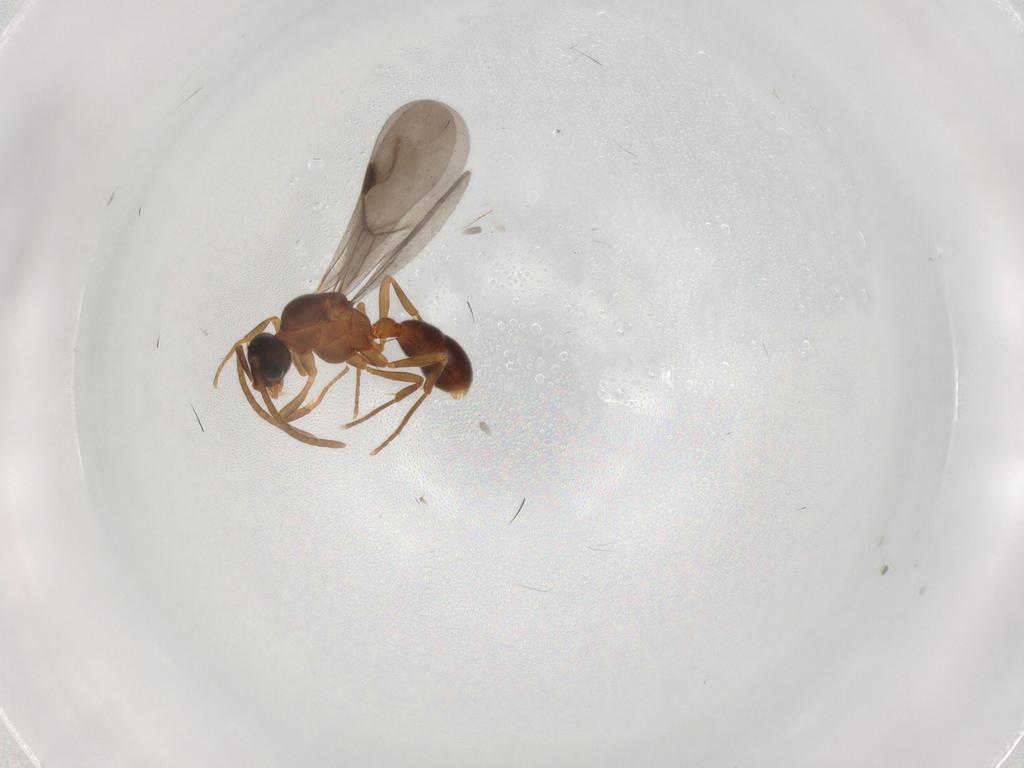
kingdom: Animalia
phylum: Arthropoda
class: Insecta
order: Hymenoptera
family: Formicidae
